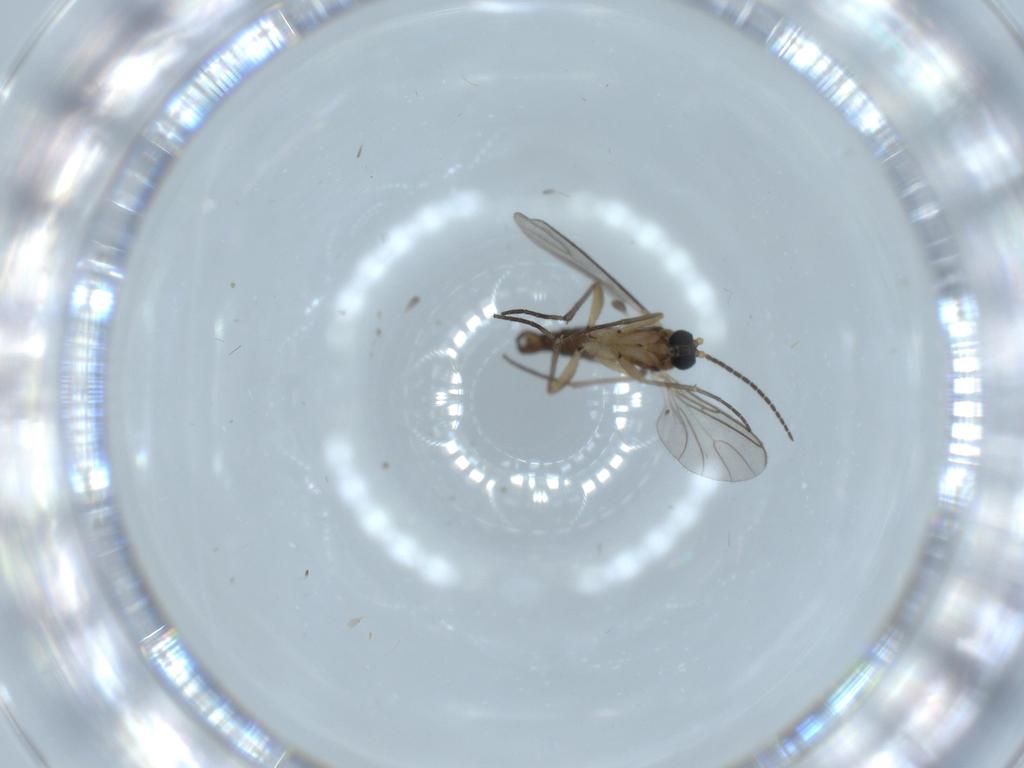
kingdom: Animalia
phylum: Arthropoda
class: Insecta
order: Diptera
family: Sciaridae
